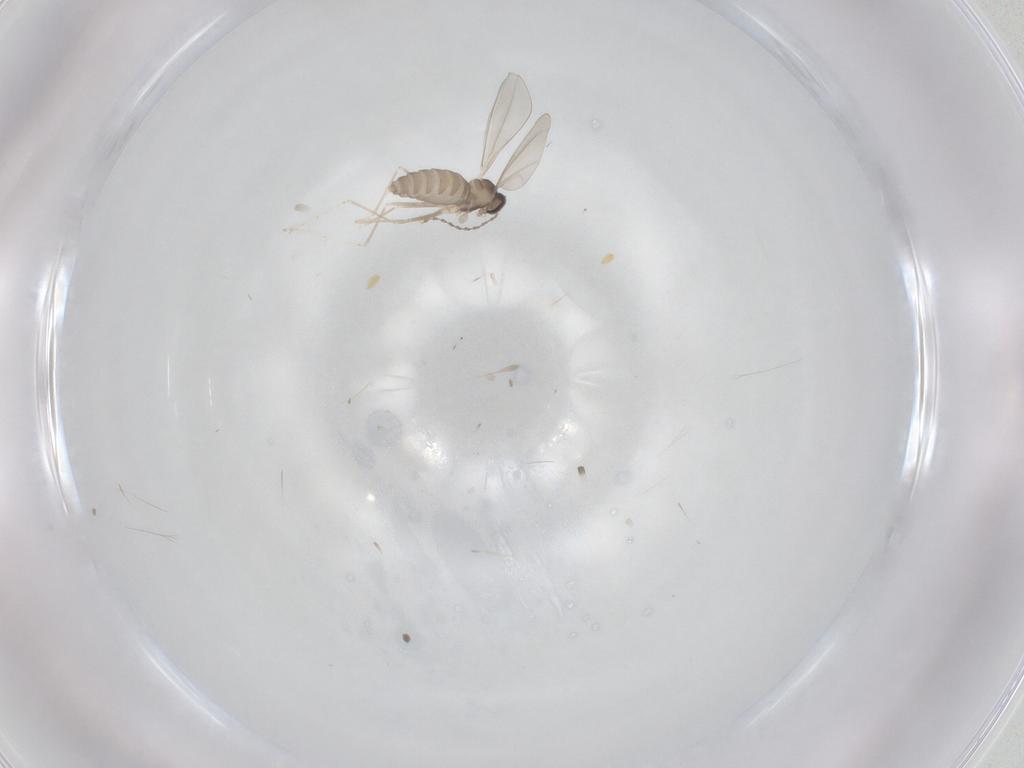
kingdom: Animalia
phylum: Arthropoda
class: Insecta
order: Diptera
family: Cecidomyiidae
